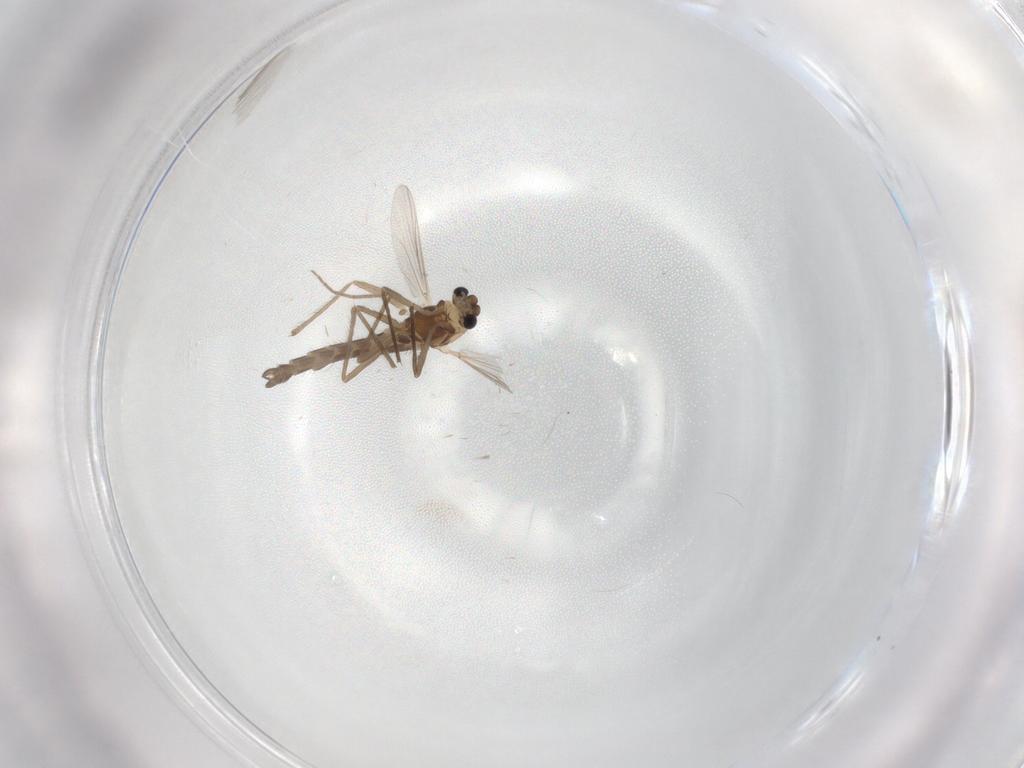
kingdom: Animalia
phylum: Arthropoda
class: Insecta
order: Diptera
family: Chironomidae
